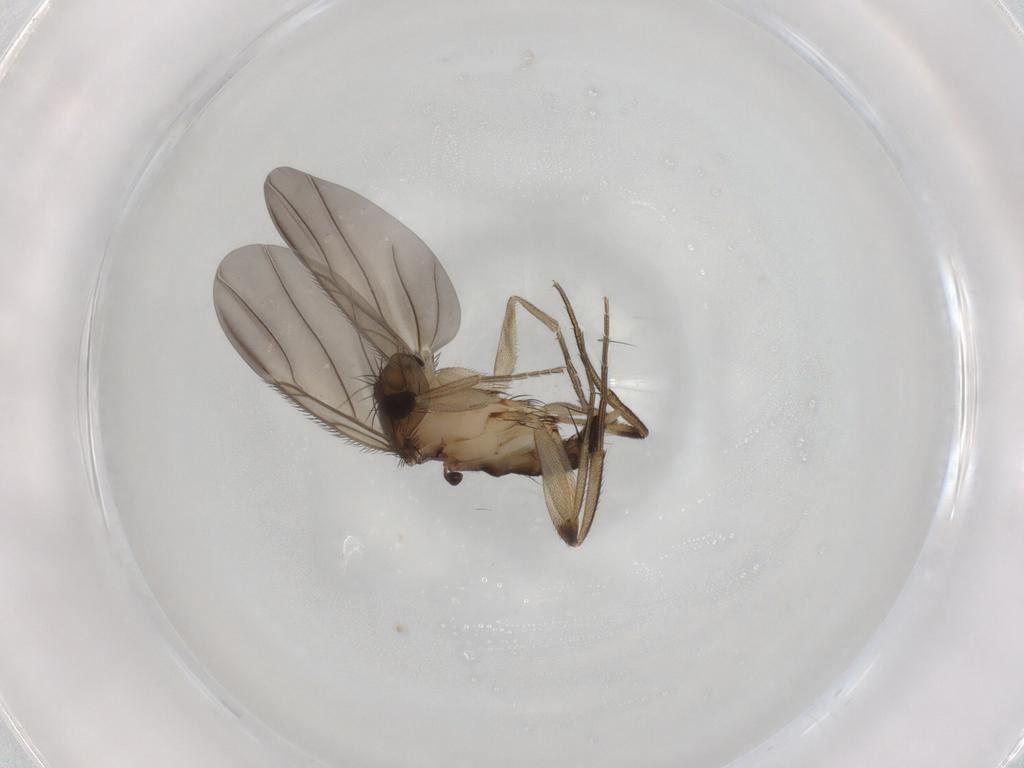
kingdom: Animalia
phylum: Arthropoda
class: Insecta
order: Diptera
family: Phoridae
